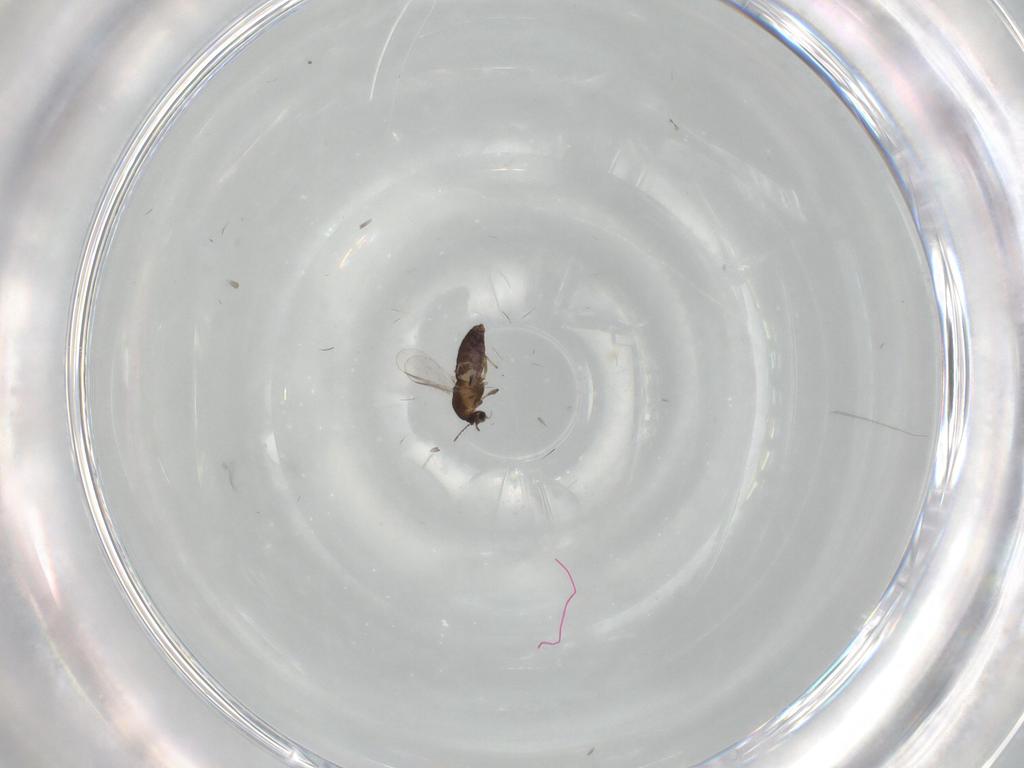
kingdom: Animalia
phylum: Arthropoda
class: Insecta
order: Diptera
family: Chironomidae
